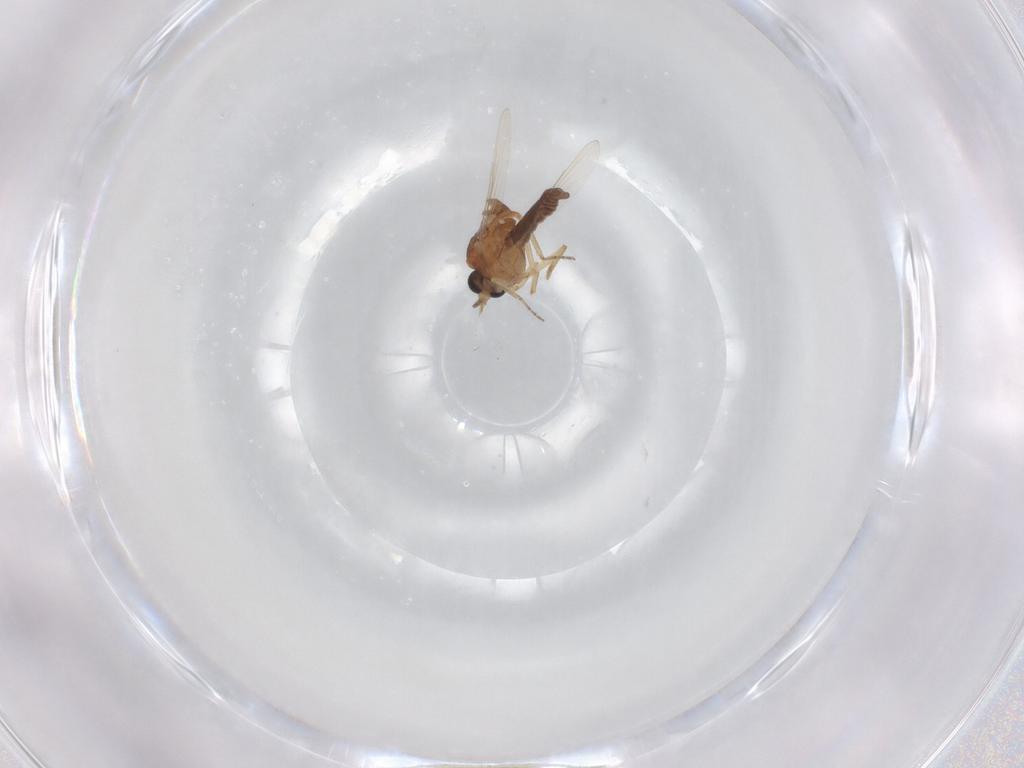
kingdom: Animalia
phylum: Arthropoda
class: Insecta
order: Diptera
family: Ceratopogonidae
